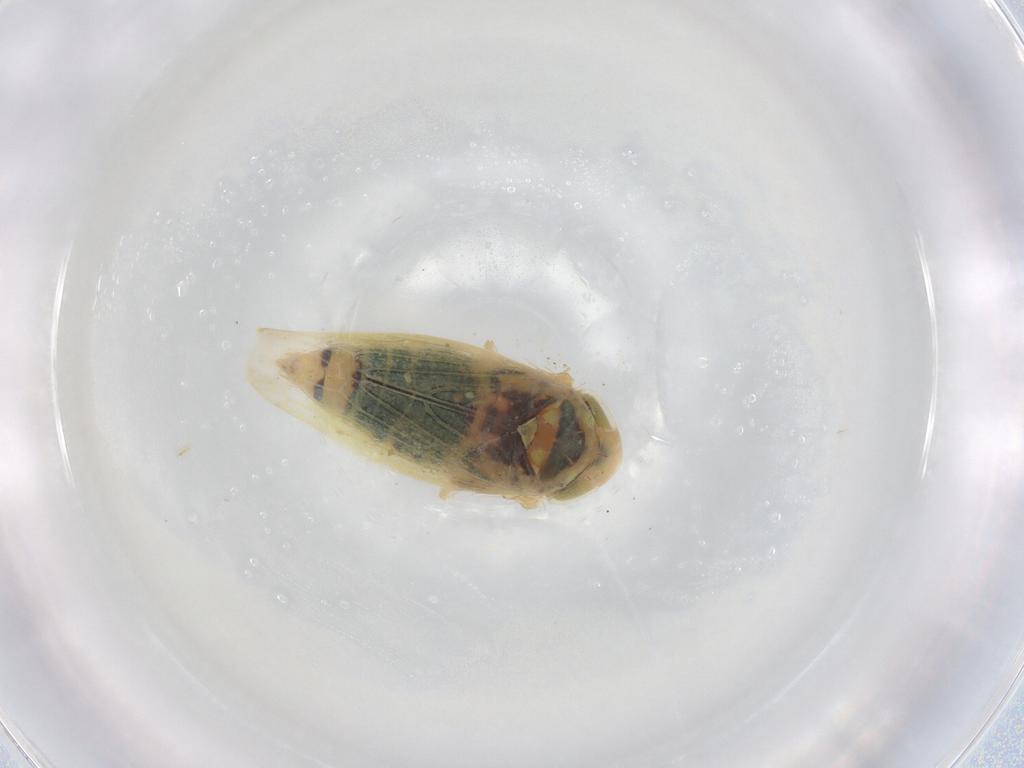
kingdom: Animalia
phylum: Arthropoda
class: Insecta
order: Hemiptera
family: Cicadellidae
